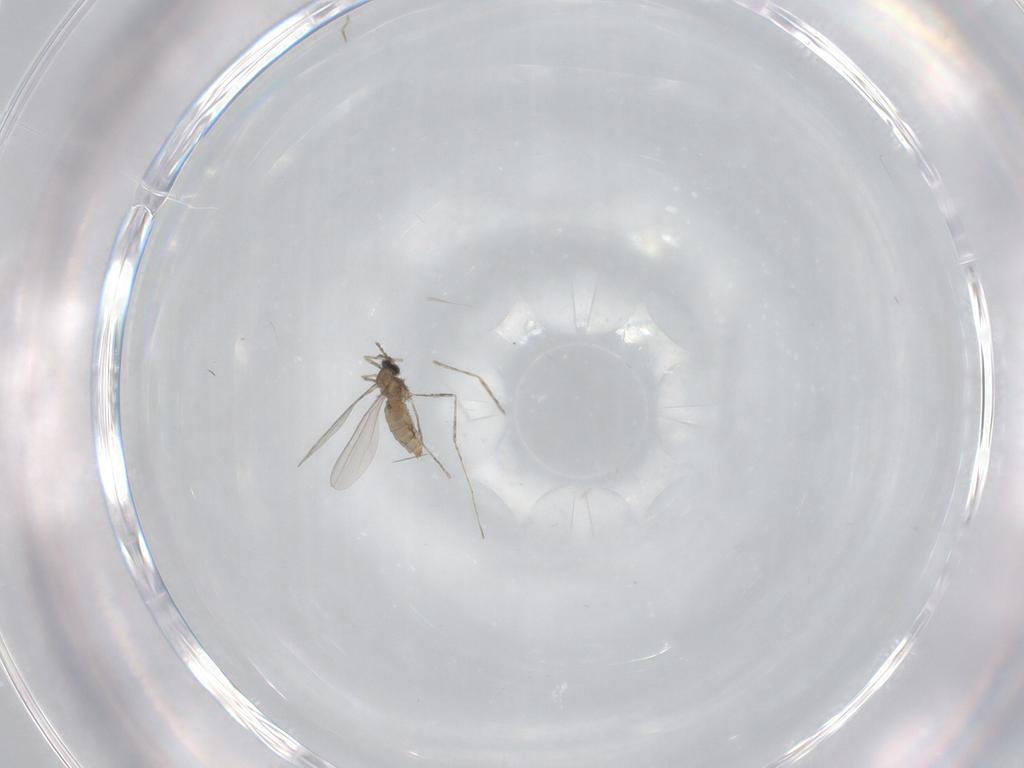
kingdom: Animalia
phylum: Arthropoda
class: Insecta
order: Diptera
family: Cecidomyiidae
